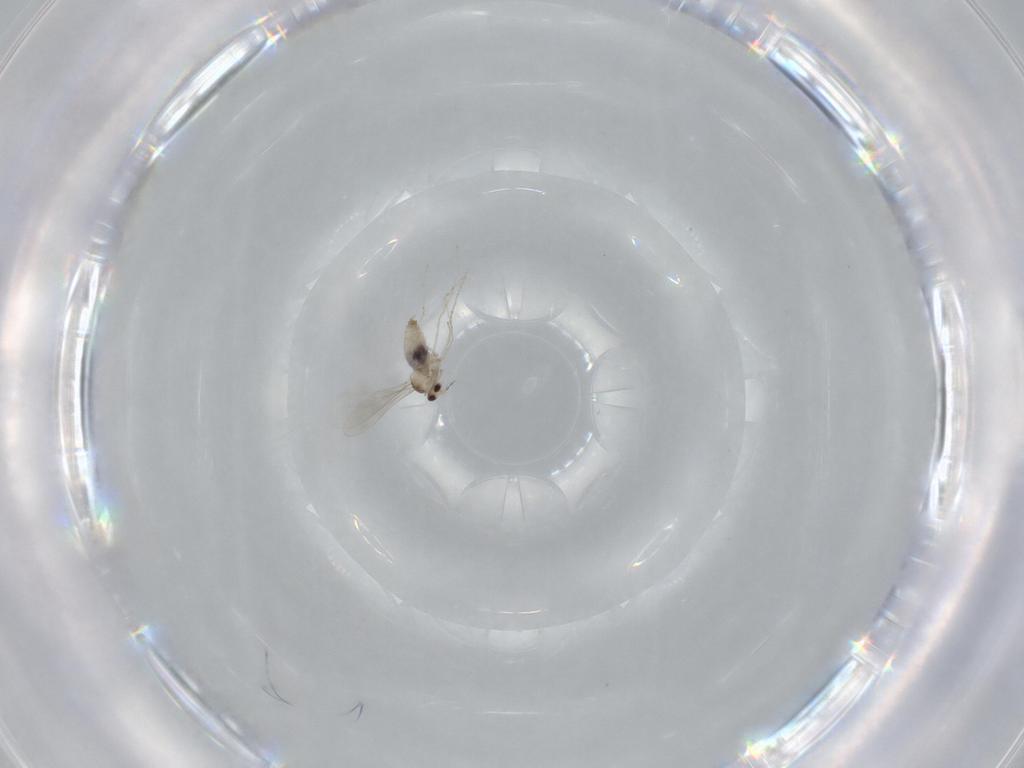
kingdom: Animalia
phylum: Arthropoda
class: Insecta
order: Diptera
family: Cecidomyiidae
